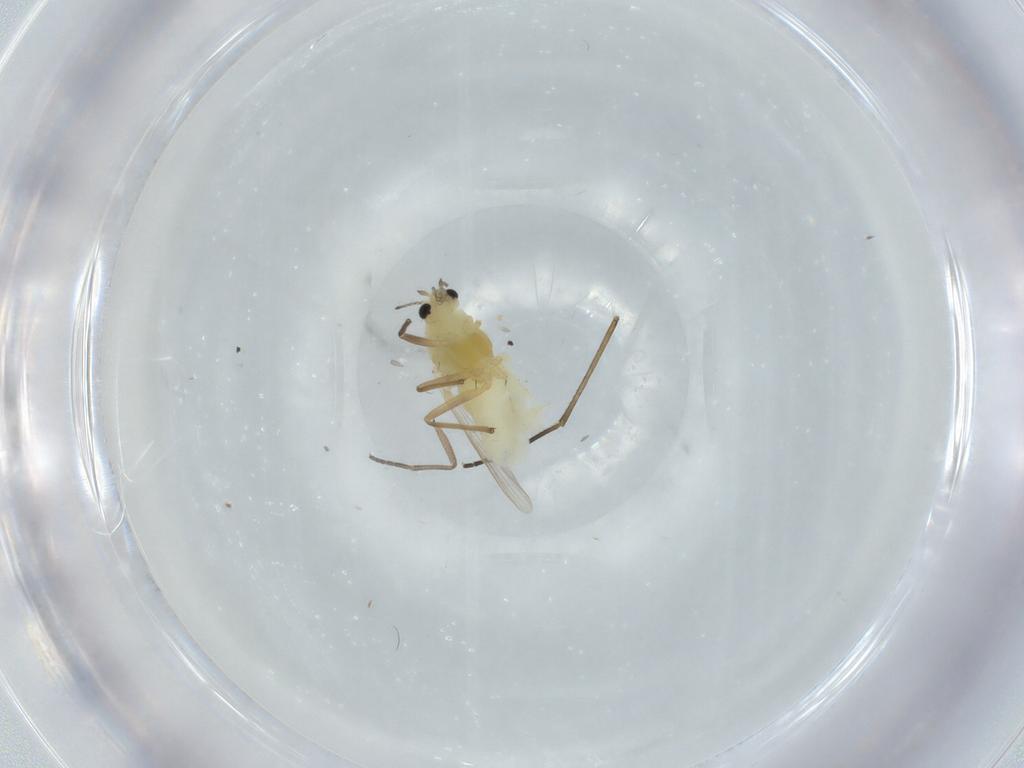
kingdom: Animalia
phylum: Arthropoda
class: Insecta
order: Diptera
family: Chironomidae
